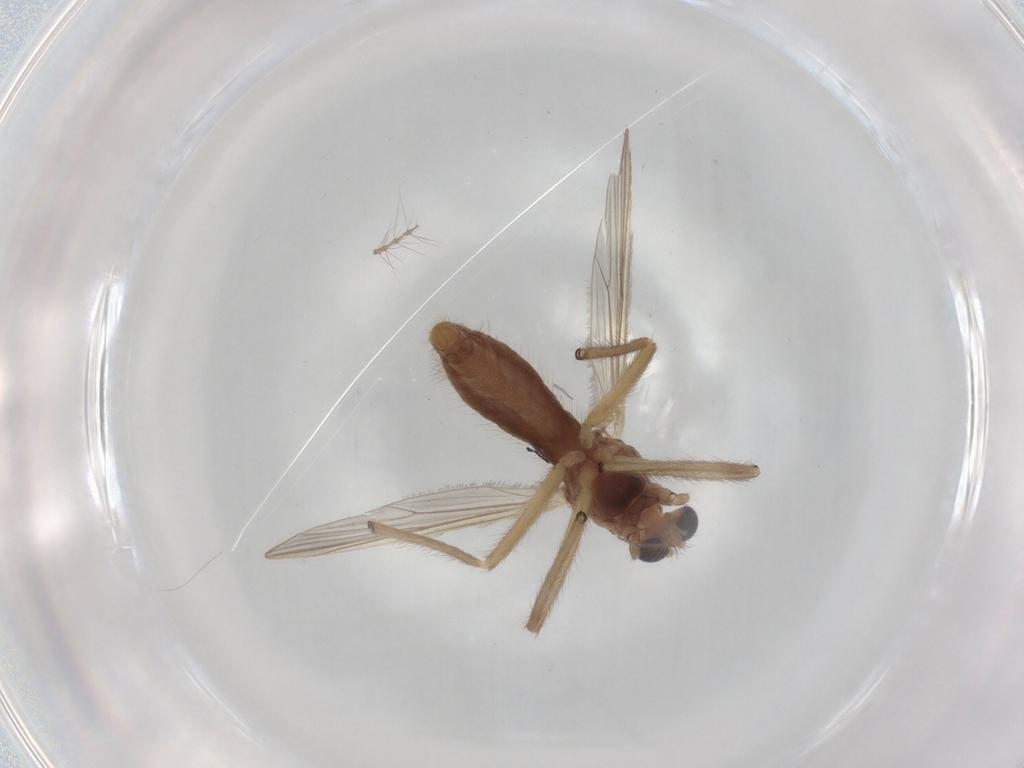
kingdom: Animalia
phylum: Arthropoda
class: Insecta
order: Diptera
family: Chironomidae
